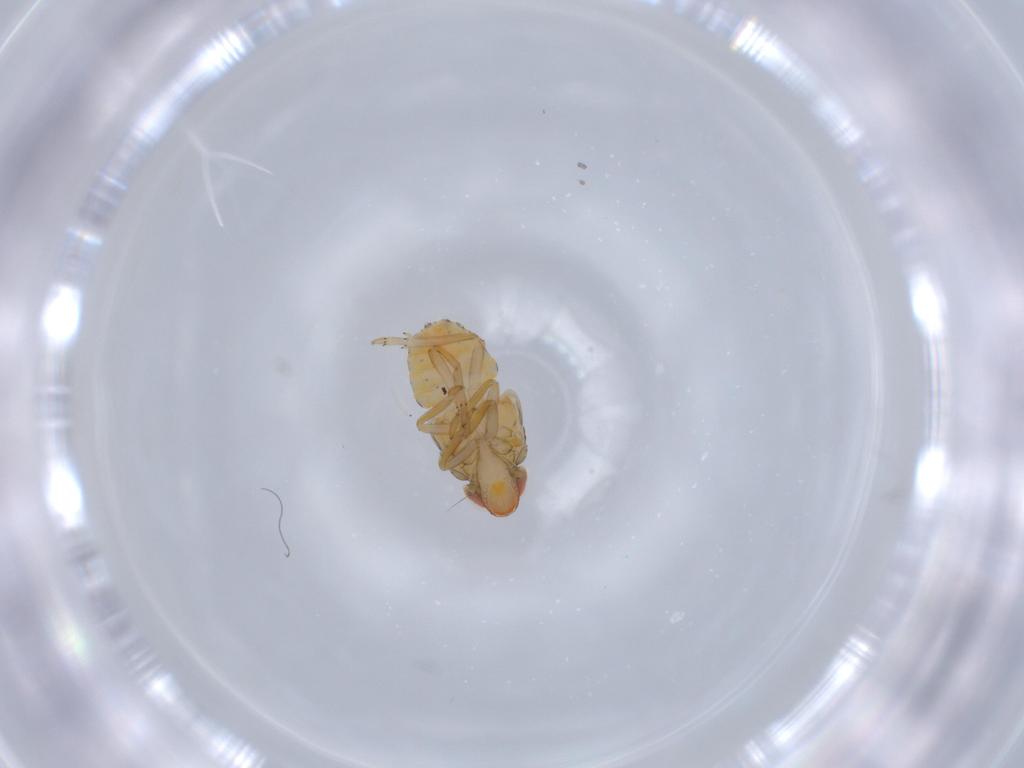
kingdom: Animalia
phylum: Arthropoda
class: Insecta
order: Hemiptera
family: Fulgoroidea_incertae_sedis
